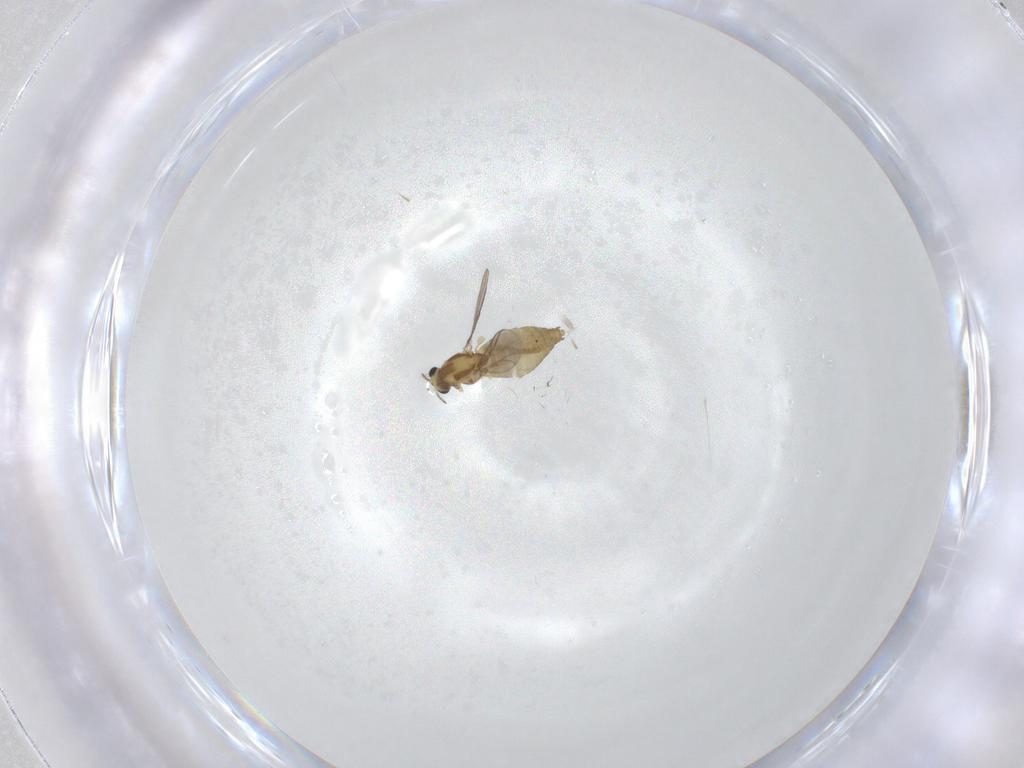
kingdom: Animalia
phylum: Arthropoda
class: Insecta
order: Diptera
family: Chironomidae
